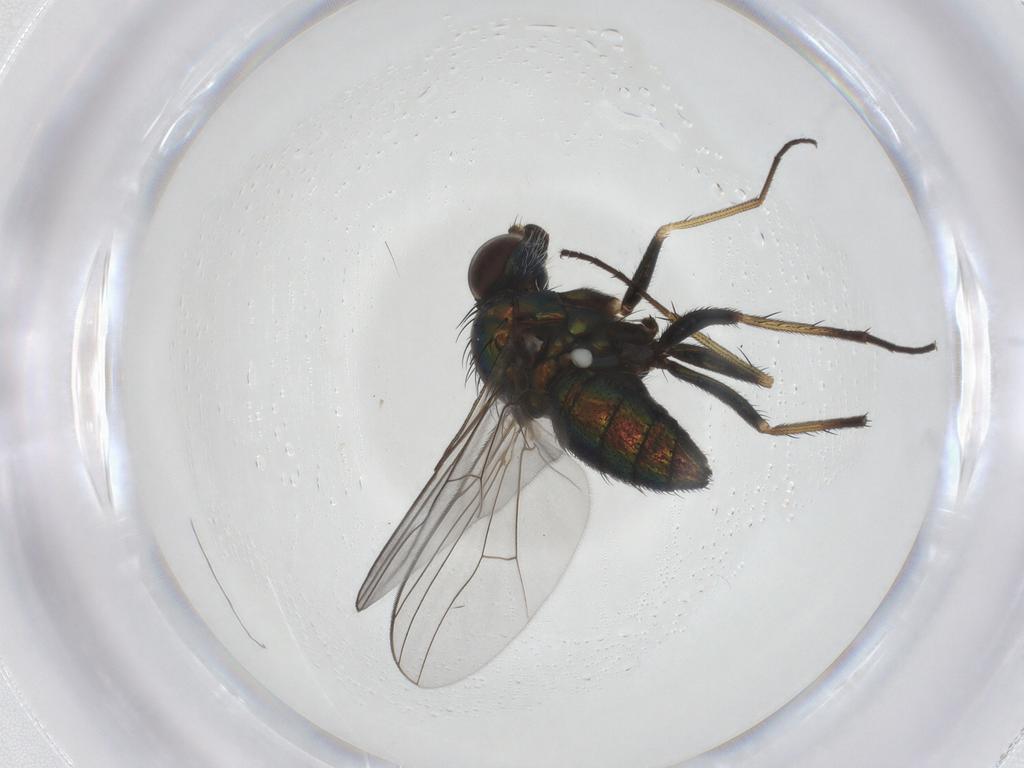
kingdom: Animalia
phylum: Arthropoda
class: Insecta
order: Diptera
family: Dolichopodidae
